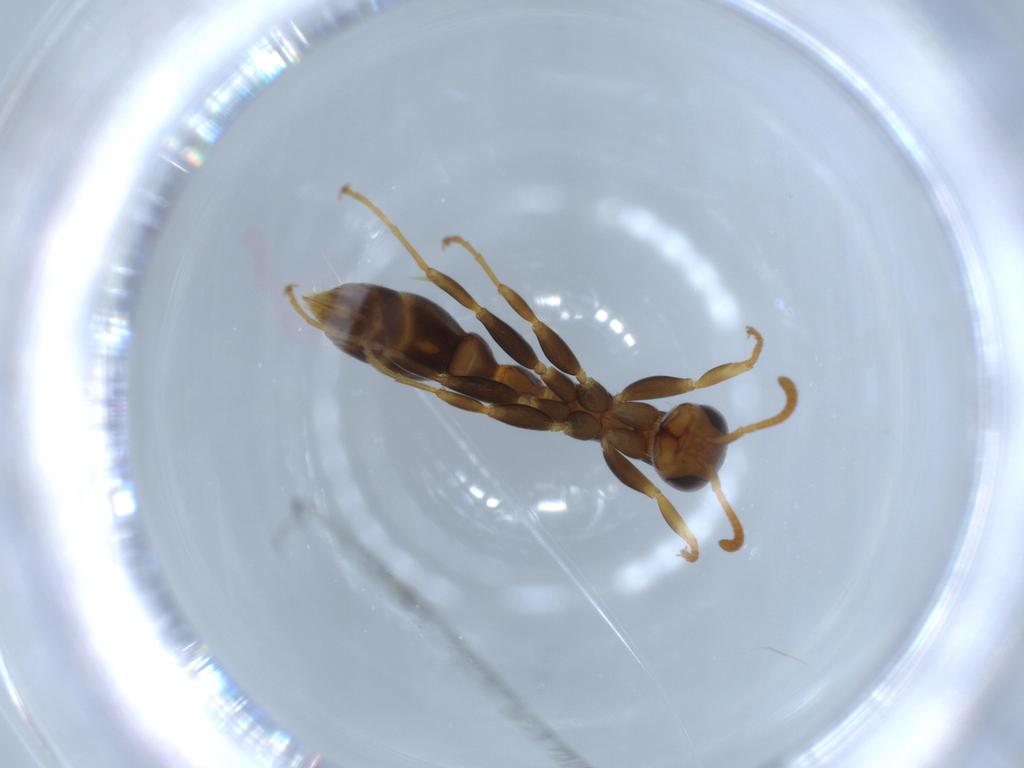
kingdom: Animalia
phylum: Arthropoda
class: Insecta
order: Hymenoptera
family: Formicidae
